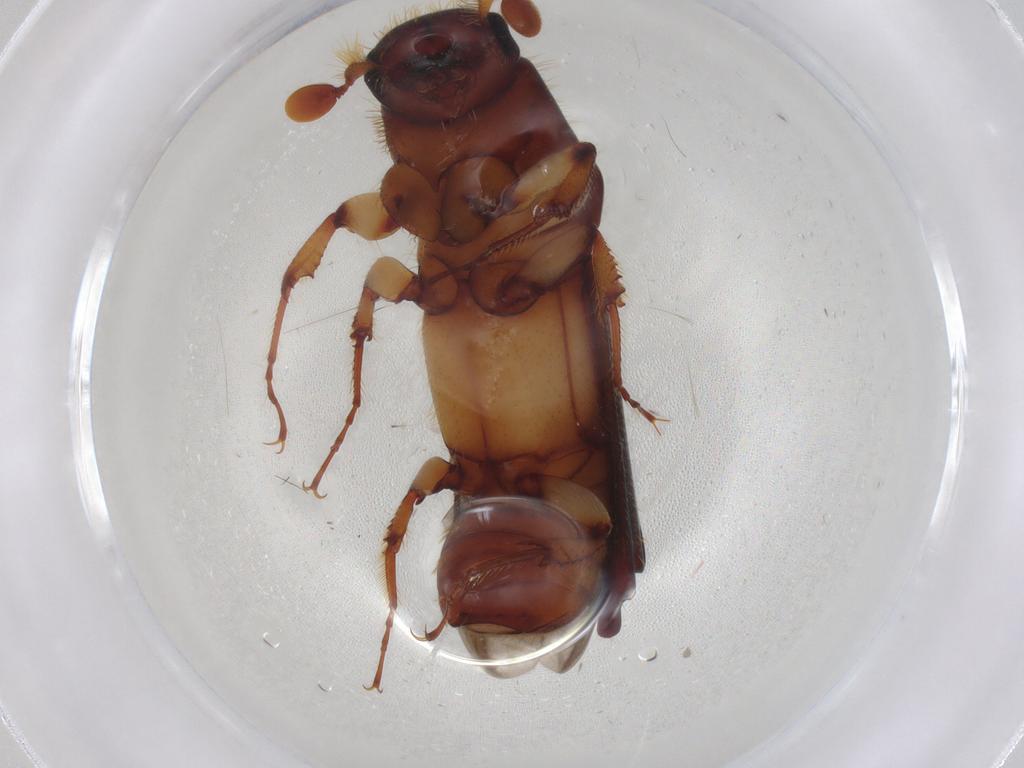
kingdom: Animalia
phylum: Arthropoda
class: Insecta
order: Coleoptera
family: Curculionidae
